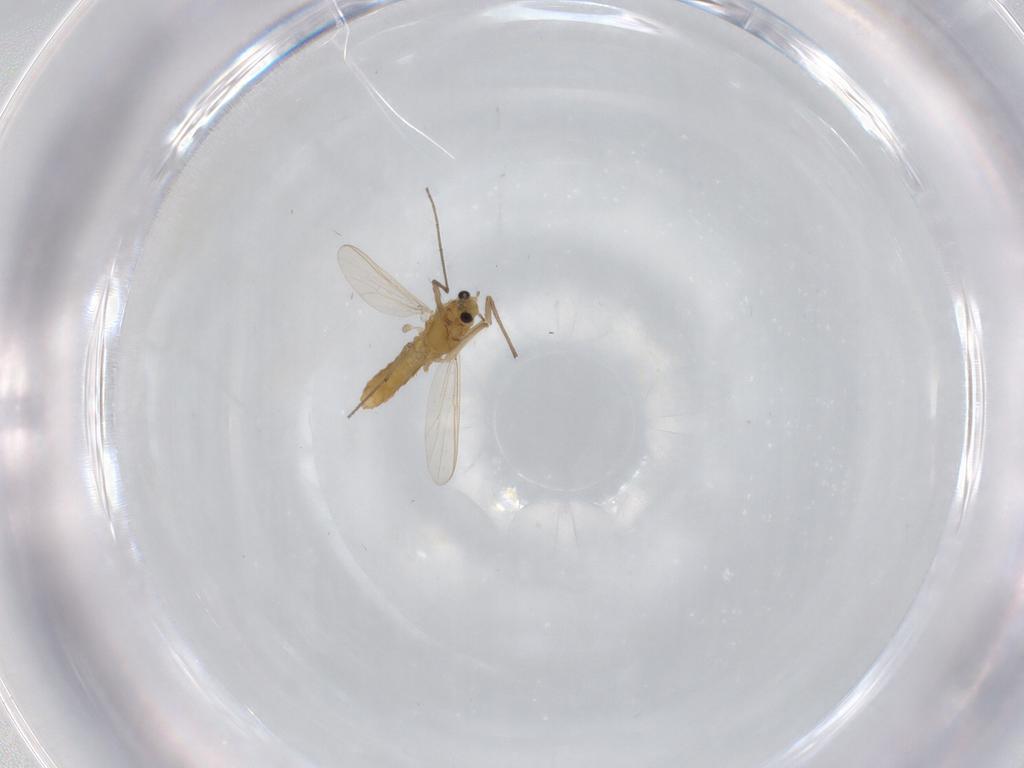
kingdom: Animalia
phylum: Arthropoda
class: Insecta
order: Diptera
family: Chironomidae
